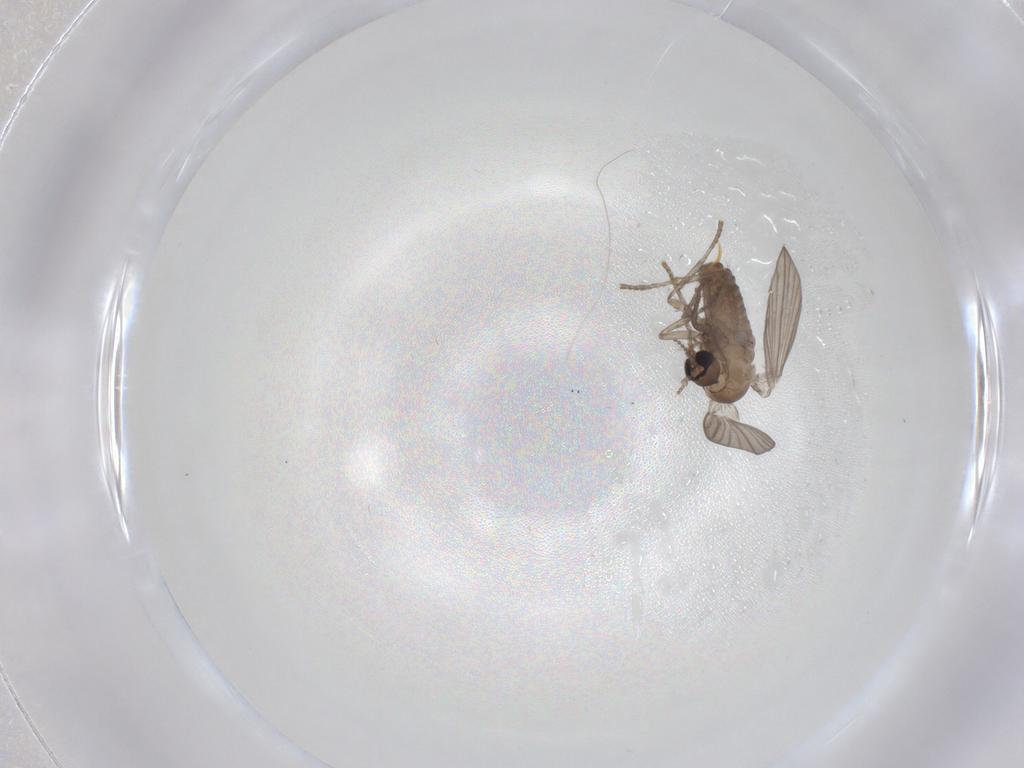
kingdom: Animalia
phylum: Arthropoda
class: Insecta
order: Diptera
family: Psychodidae
